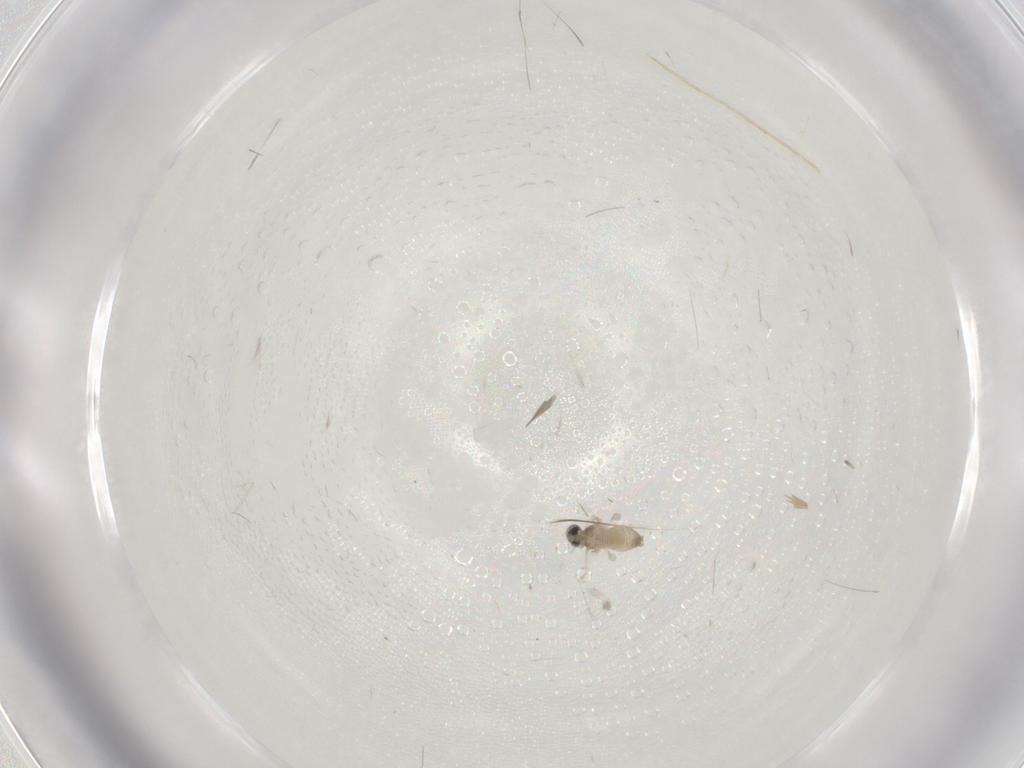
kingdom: Animalia
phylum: Arthropoda
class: Insecta
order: Diptera
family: Cecidomyiidae
